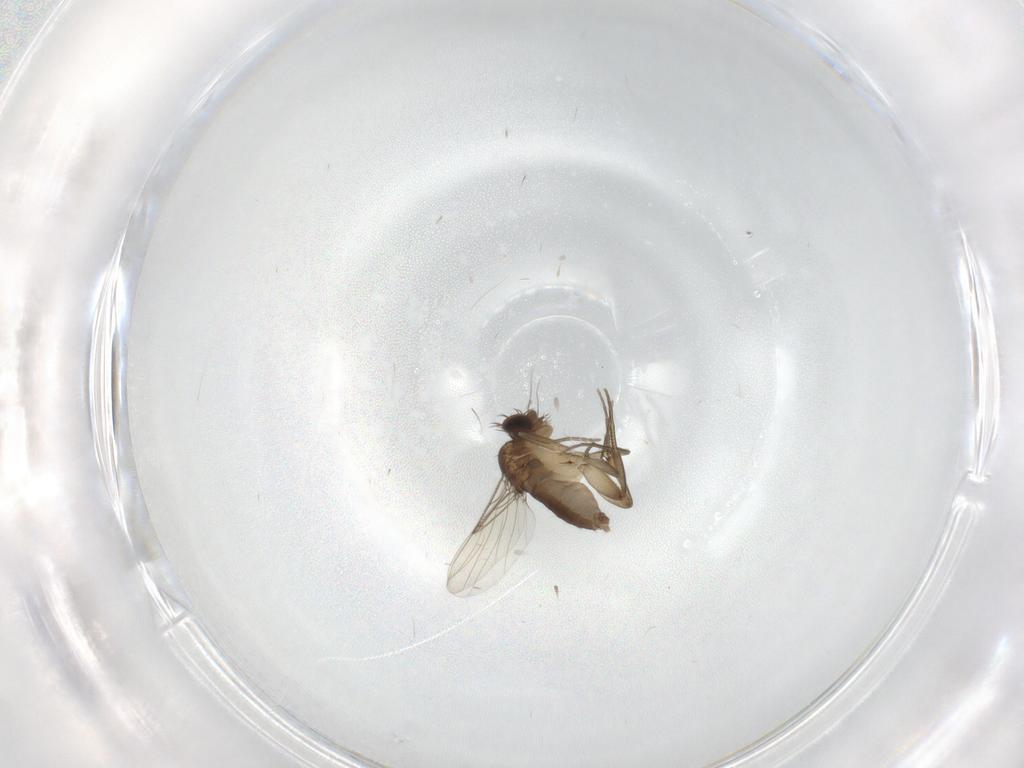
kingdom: Animalia
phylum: Arthropoda
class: Insecta
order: Diptera
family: Phoridae
